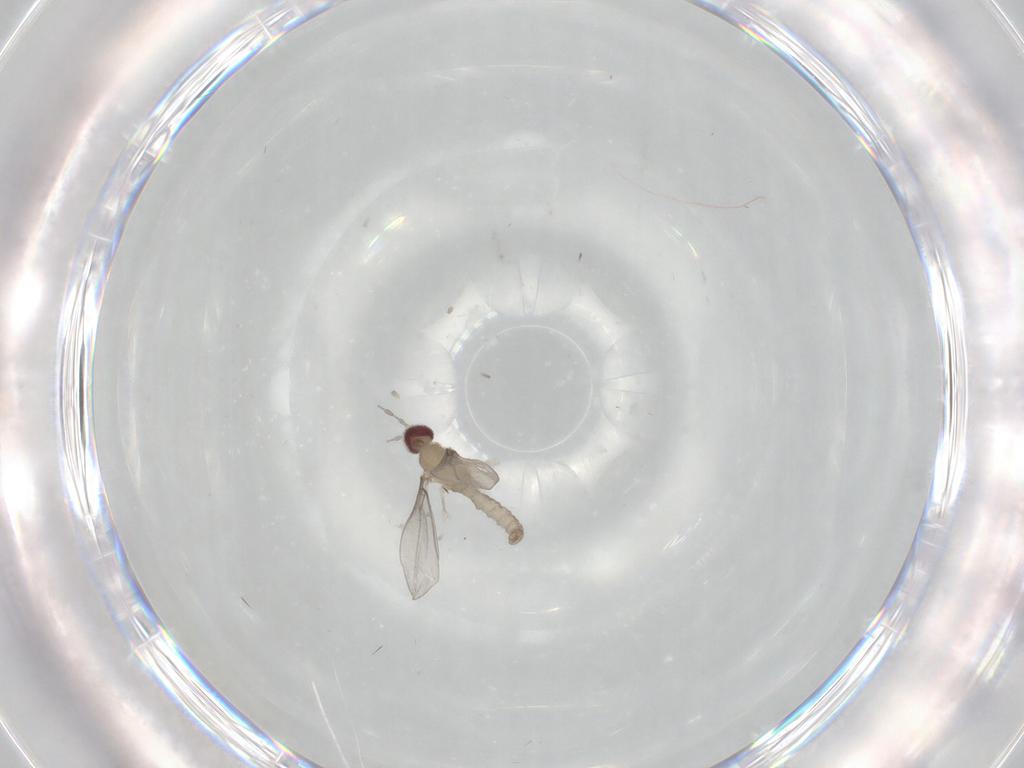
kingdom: Animalia
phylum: Arthropoda
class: Insecta
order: Diptera
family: Cecidomyiidae
